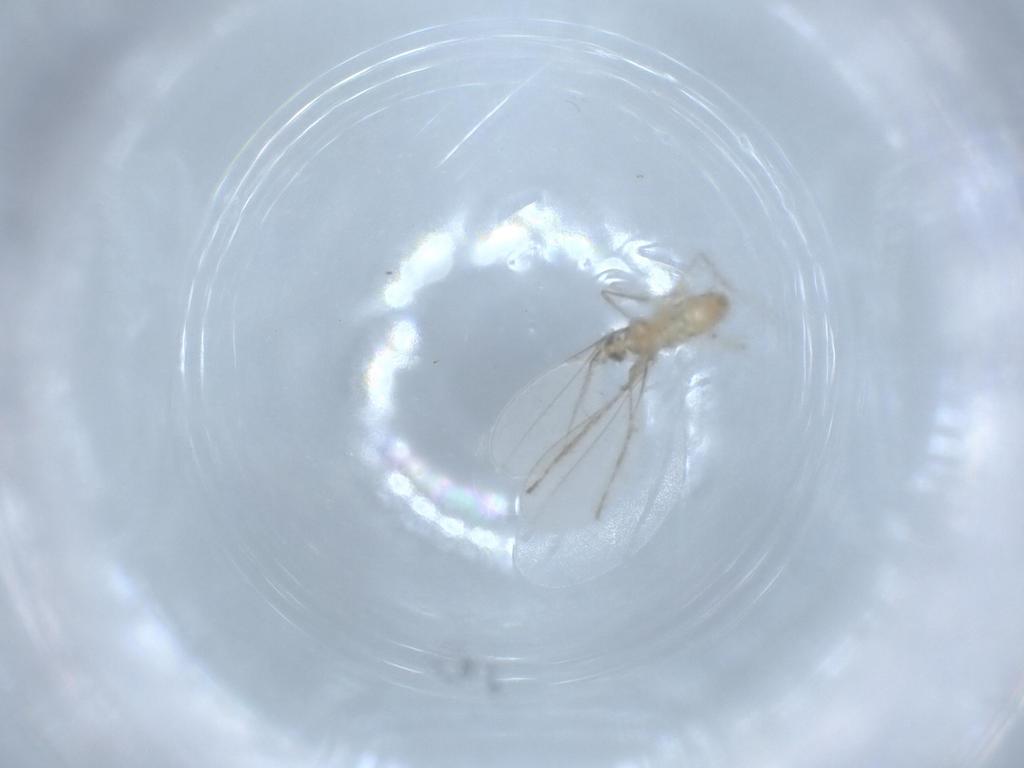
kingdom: Animalia
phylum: Arthropoda
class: Insecta
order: Diptera
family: Cecidomyiidae
